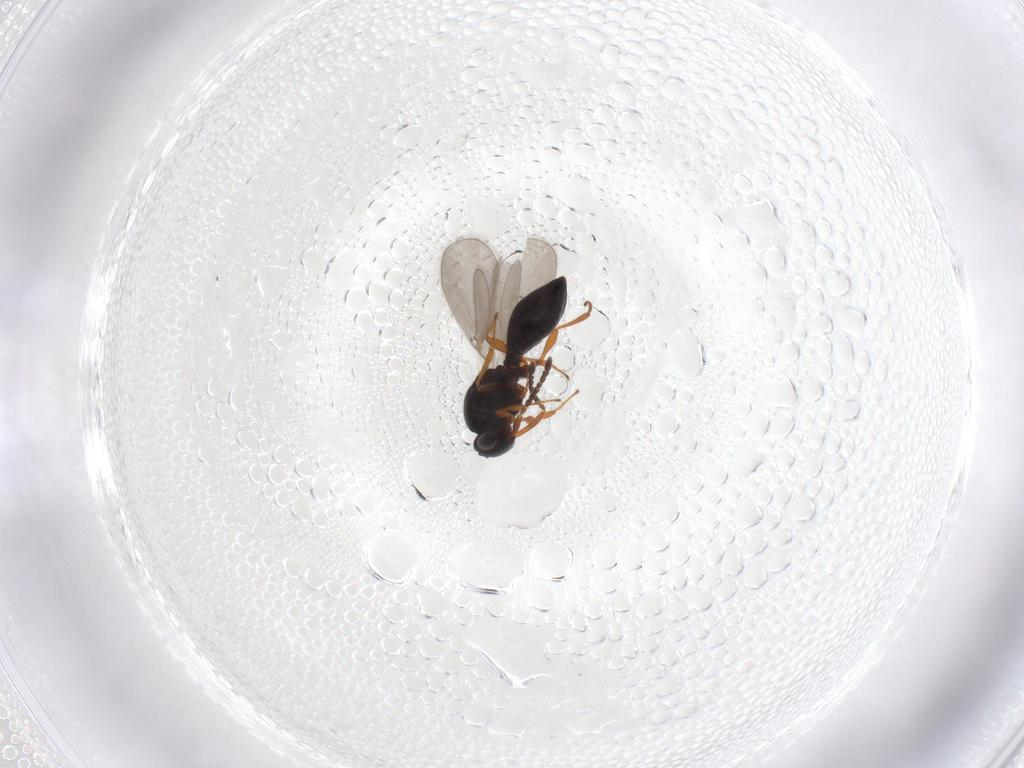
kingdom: Animalia
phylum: Arthropoda
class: Insecta
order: Hymenoptera
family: Platygastridae
